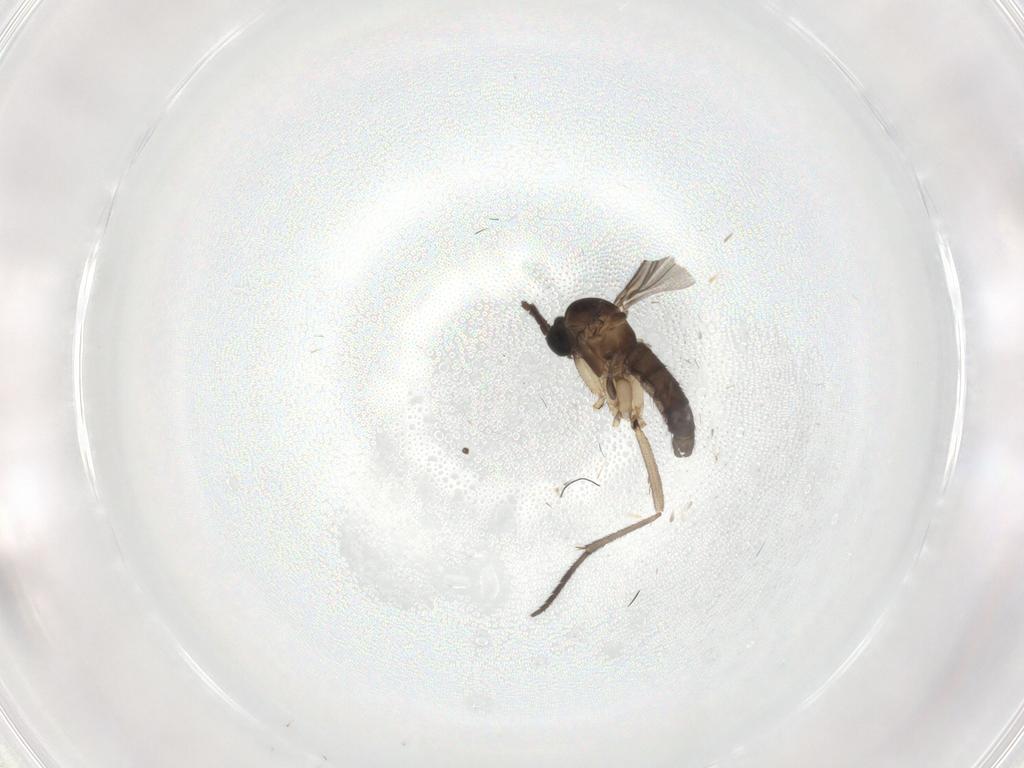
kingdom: Animalia
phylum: Arthropoda
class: Insecta
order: Diptera
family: Sciaridae
